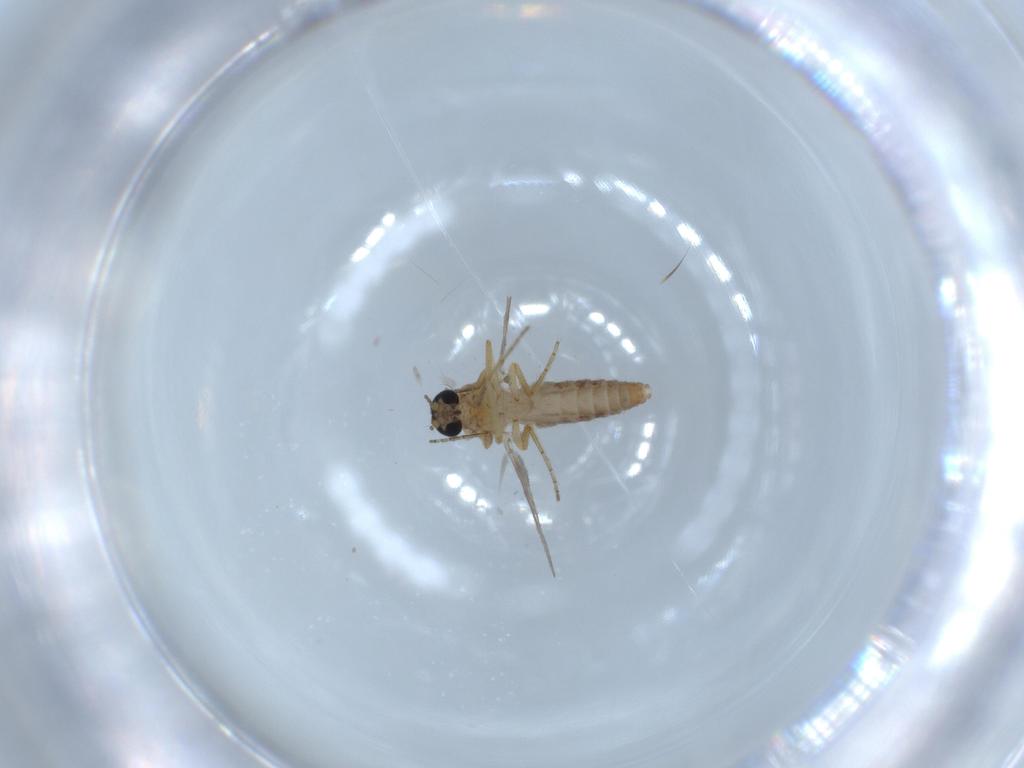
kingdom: Animalia
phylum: Arthropoda
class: Insecta
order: Diptera
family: Ceratopogonidae
